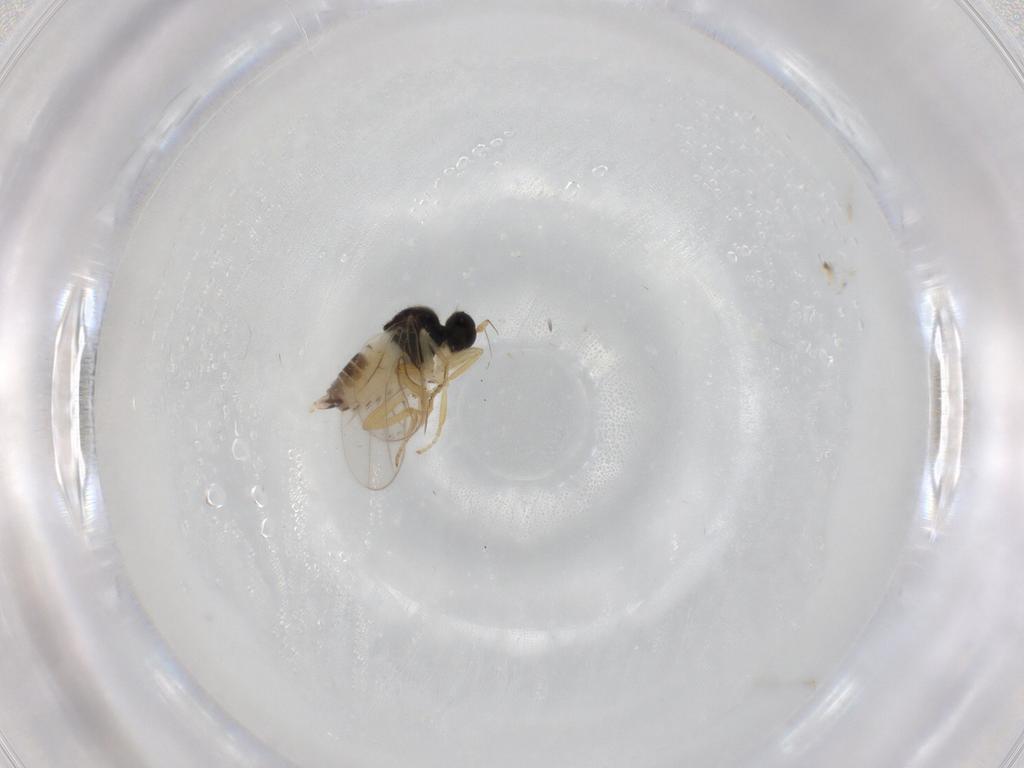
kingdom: Animalia
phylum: Arthropoda
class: Insecta
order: Diptera
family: Hybotidae
